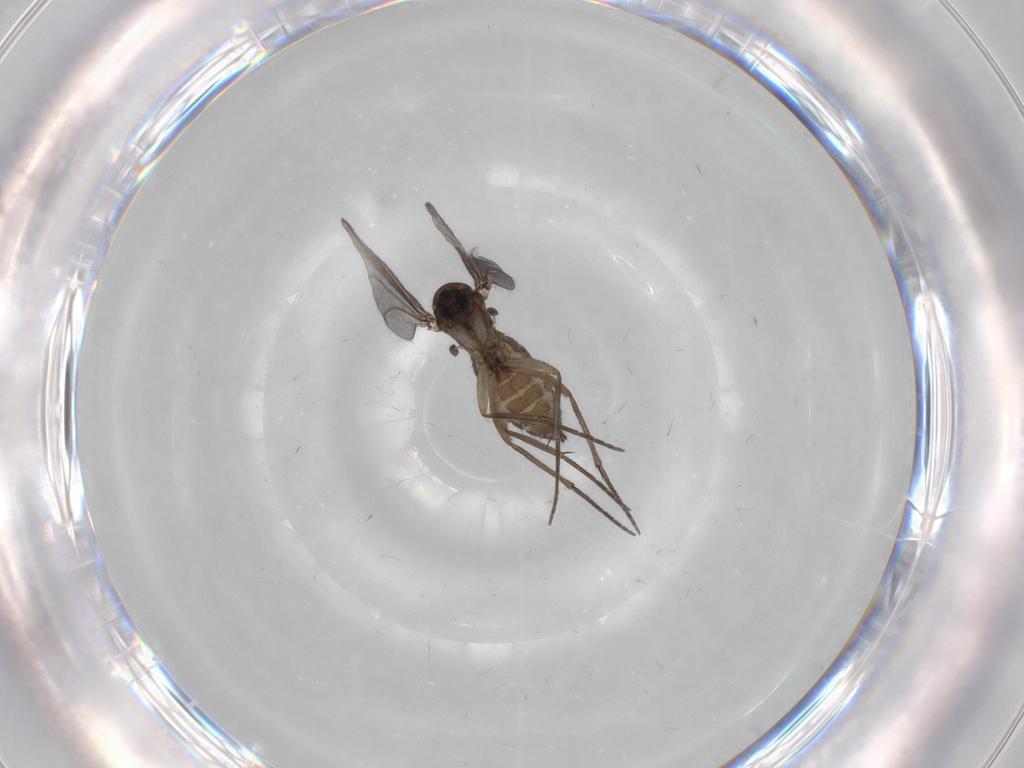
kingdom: Animalia
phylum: Arthropoda
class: Insecta
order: Diptera
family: Sciaridae
